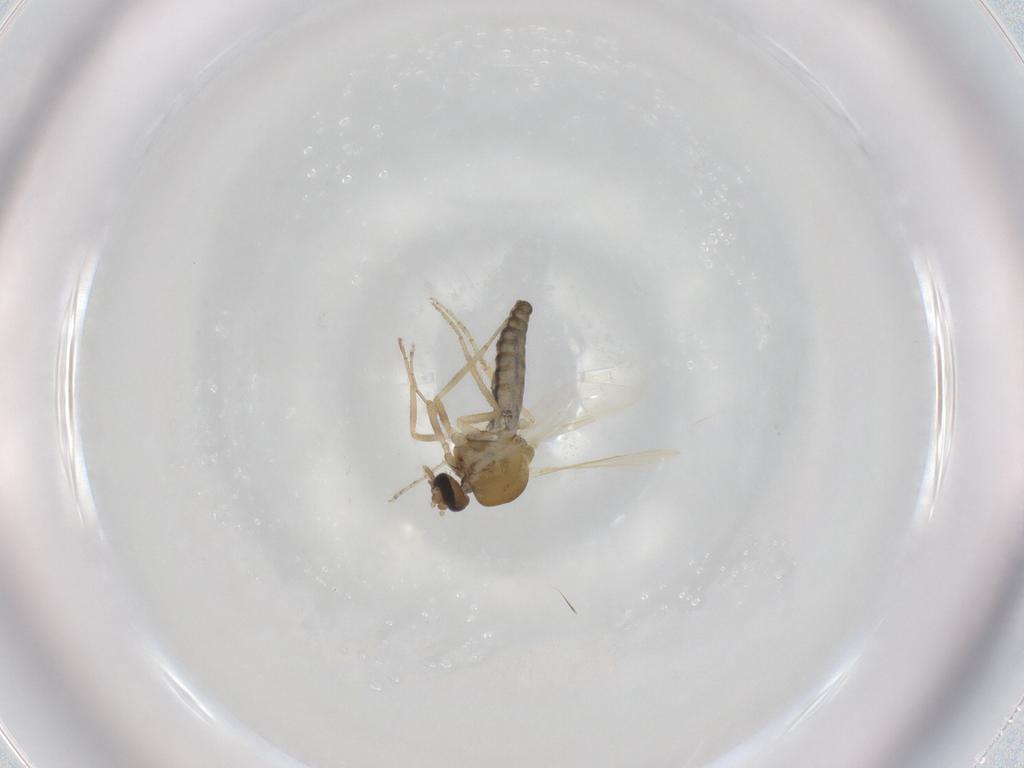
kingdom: Animalia
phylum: Arthropoda
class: Insecta
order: Diptera
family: Ceratopogonidae
